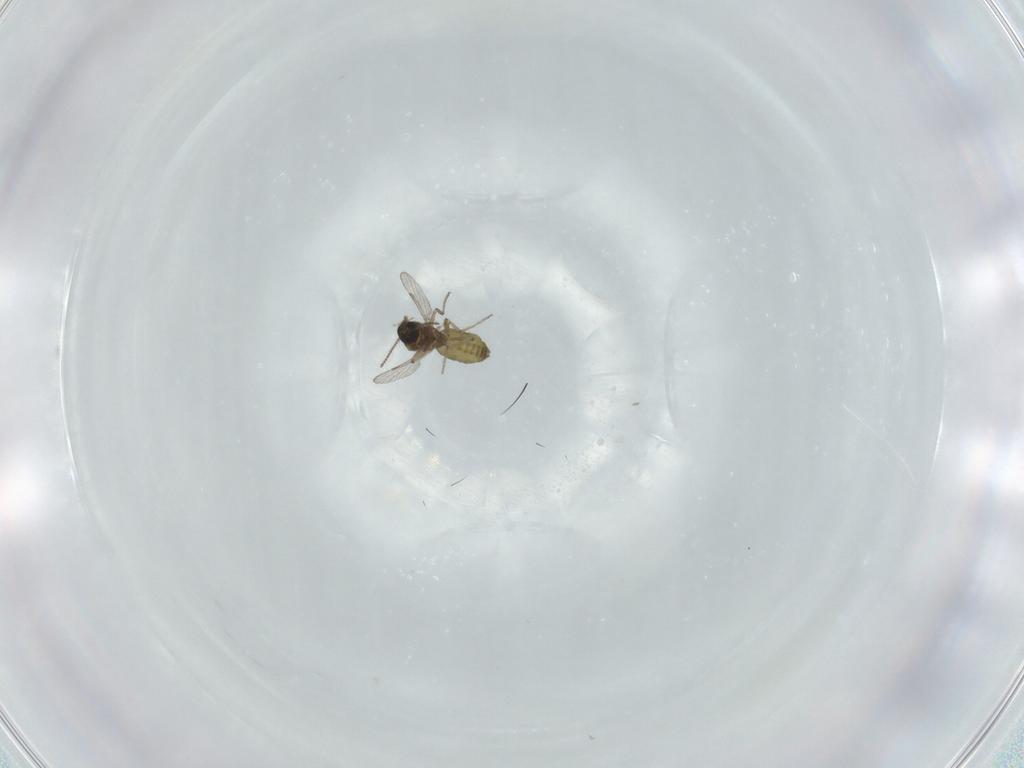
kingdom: Animalia
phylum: Arthropoda
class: Insecta
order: Diptera
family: Ceratopogonidae
